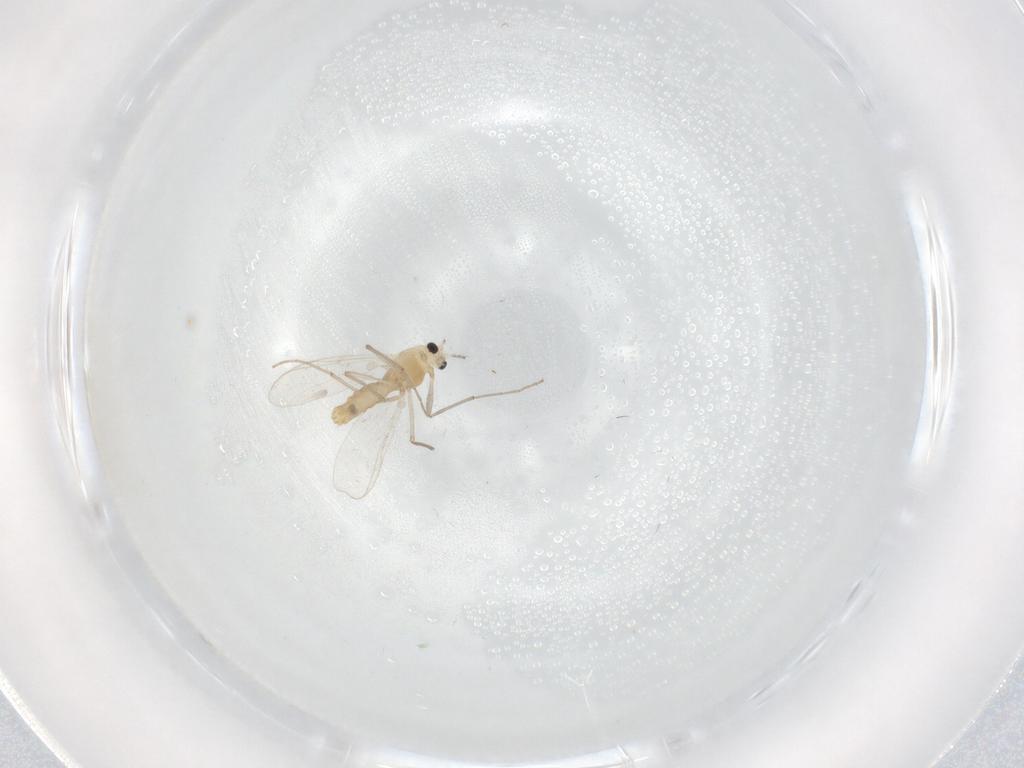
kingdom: Animalia
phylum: Arthropoda
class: Insecta
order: Diptera
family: Chironomidae
